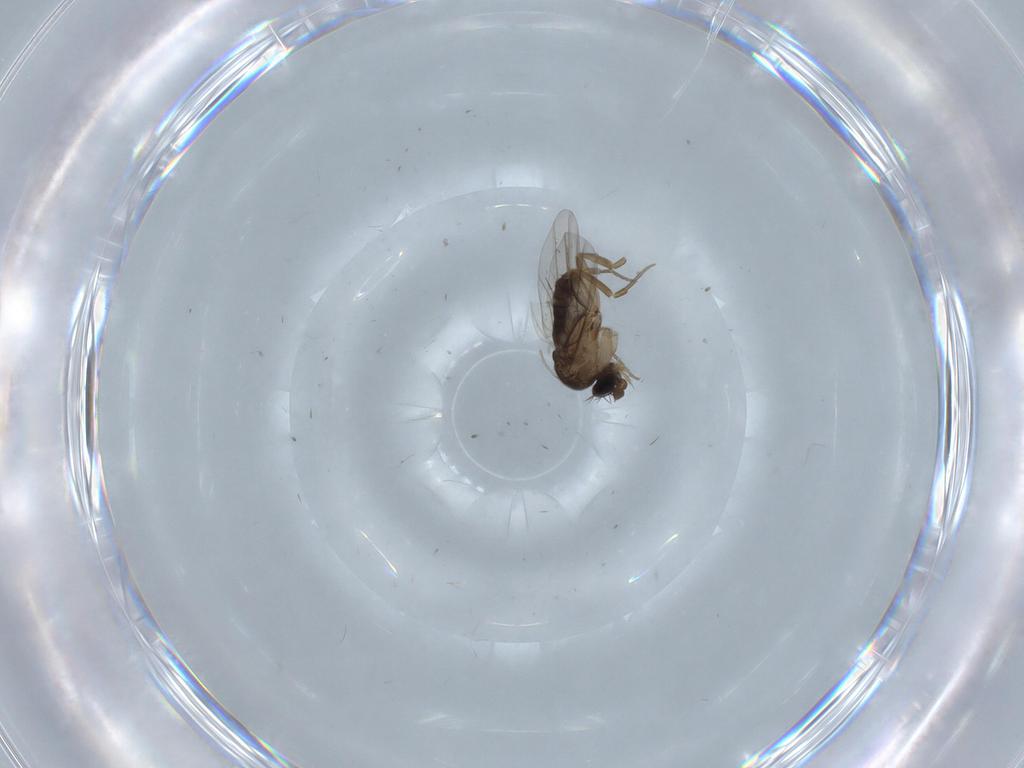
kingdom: Animalia
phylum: Arthropoda
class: Insecta
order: Diptera
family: Phoridae
